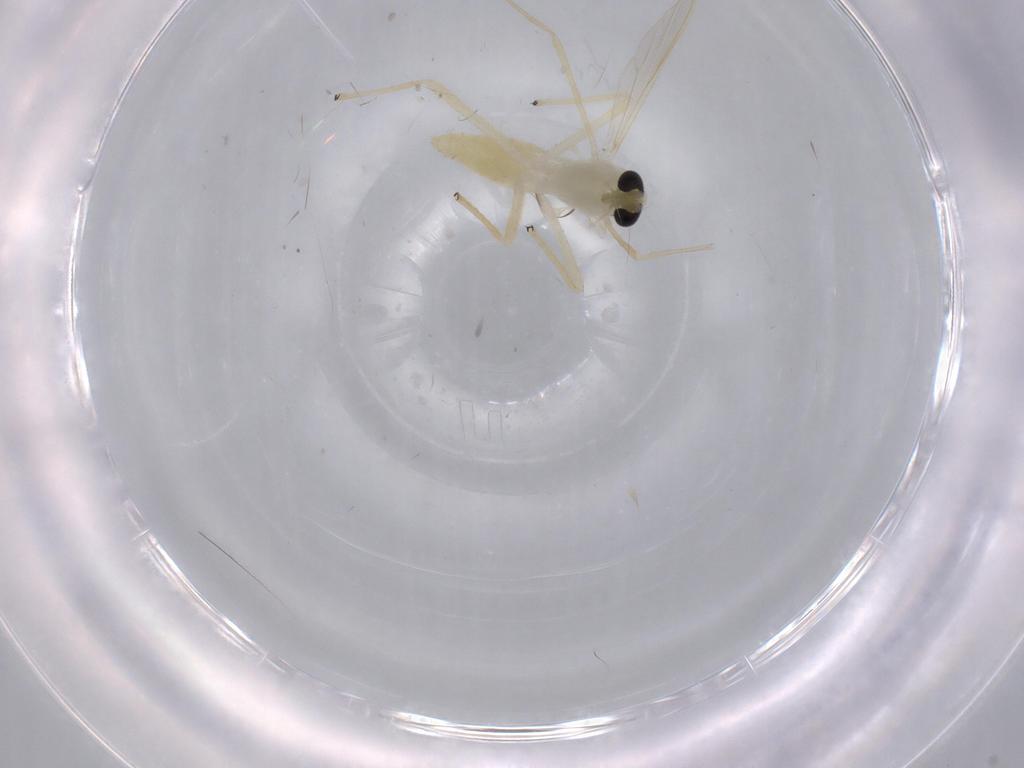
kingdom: Animalia
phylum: Arthropoda
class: Insecta
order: Diptera
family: Chironomidae
